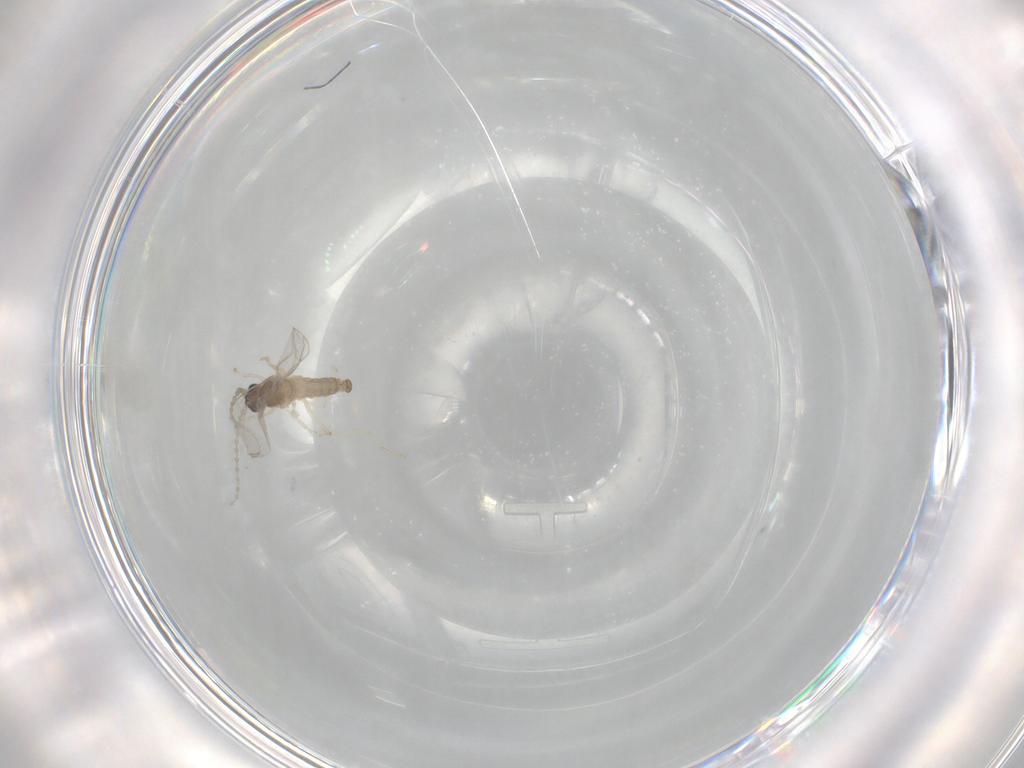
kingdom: Animalia
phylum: Arthropoda
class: Insecta
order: Diptera
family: Cecidomyiidae
